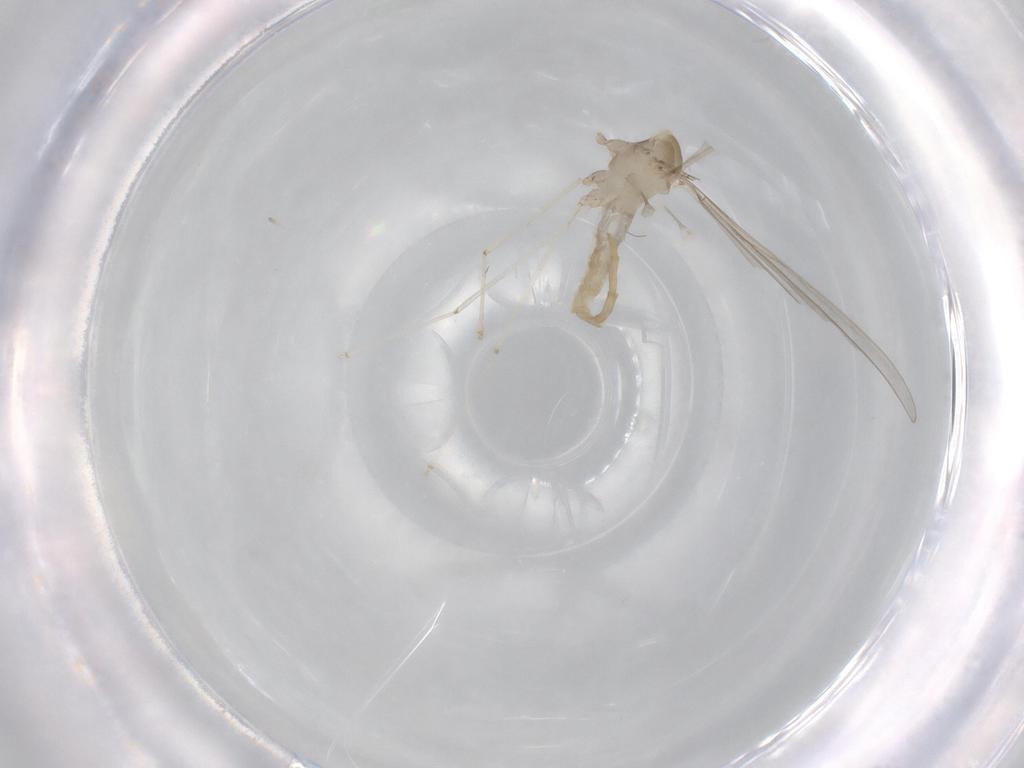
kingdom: Animalia
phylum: Arthropoda
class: Insecta
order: Diptera
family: Cecidomyiidae
